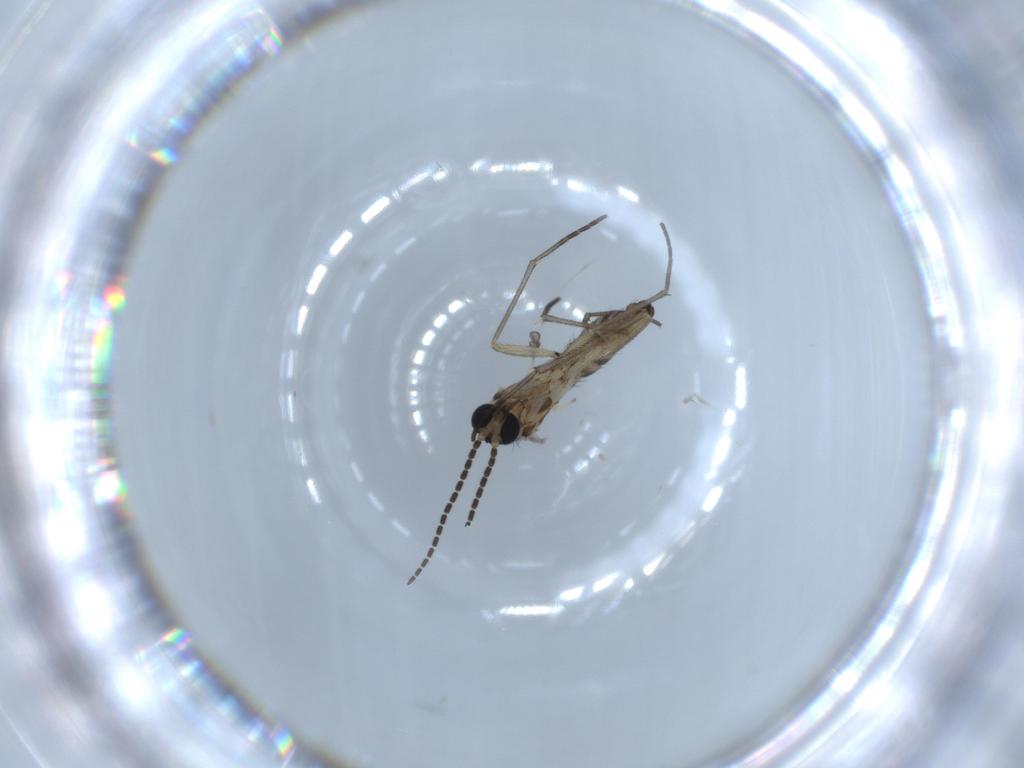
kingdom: Animalia
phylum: Arthropoda
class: Insecta
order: Diptera
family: Sciaridae
